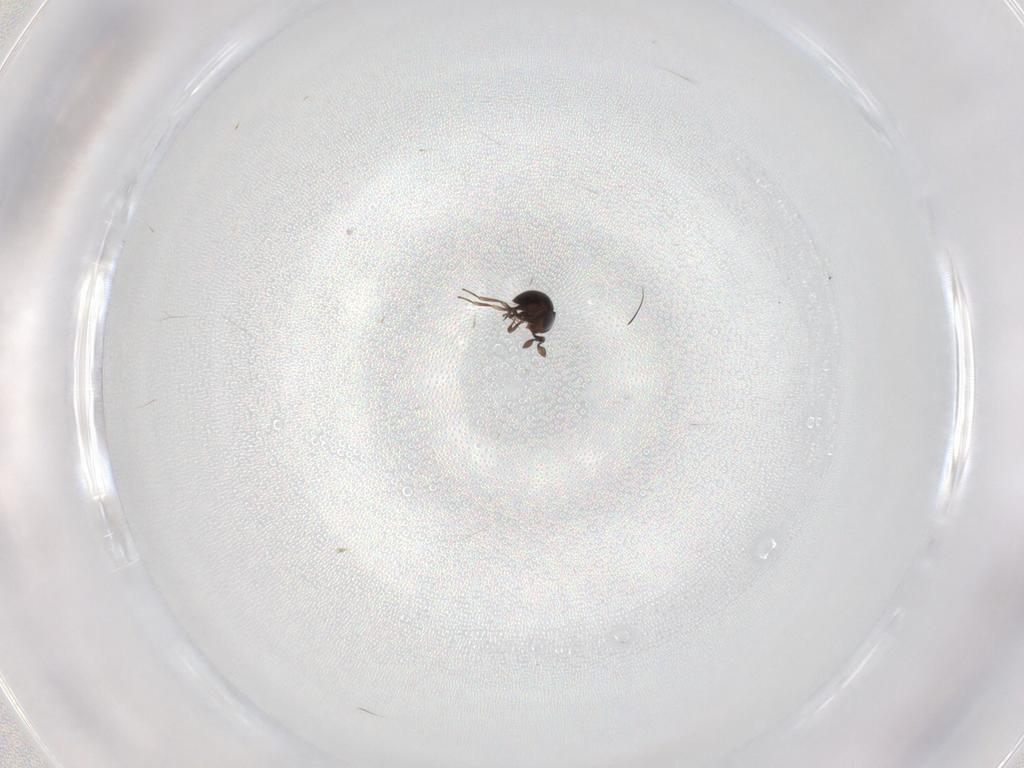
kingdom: Animalia
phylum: Arthropoda
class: Insecta
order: Hymenoptera
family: Scelionidae
